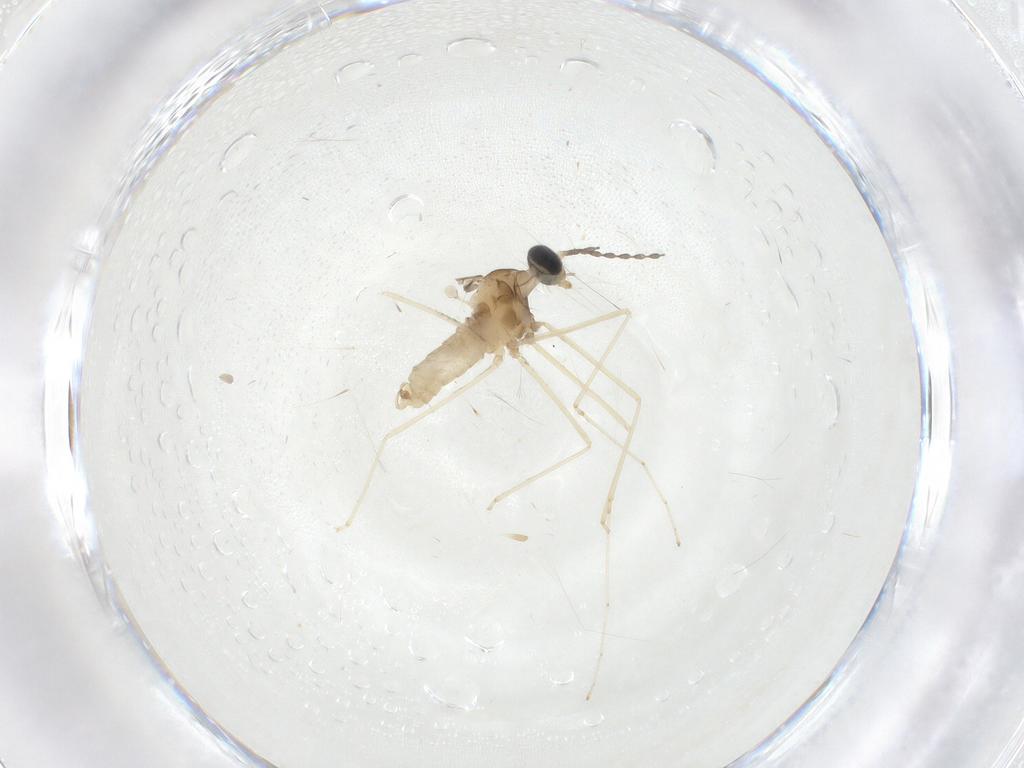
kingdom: Animalia
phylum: Arthropoda
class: Insecta
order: Diptera
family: Cecidomyiidae
